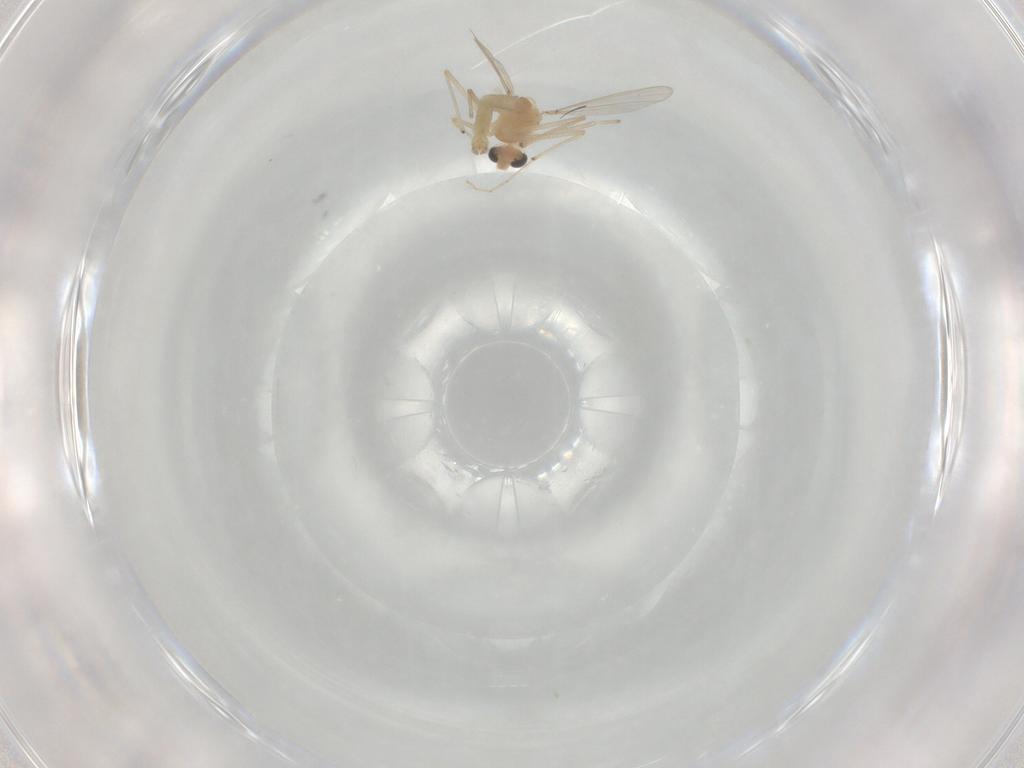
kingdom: Animalia
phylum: Arthropoda
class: Insecta
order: Diptera
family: Chironomidae
